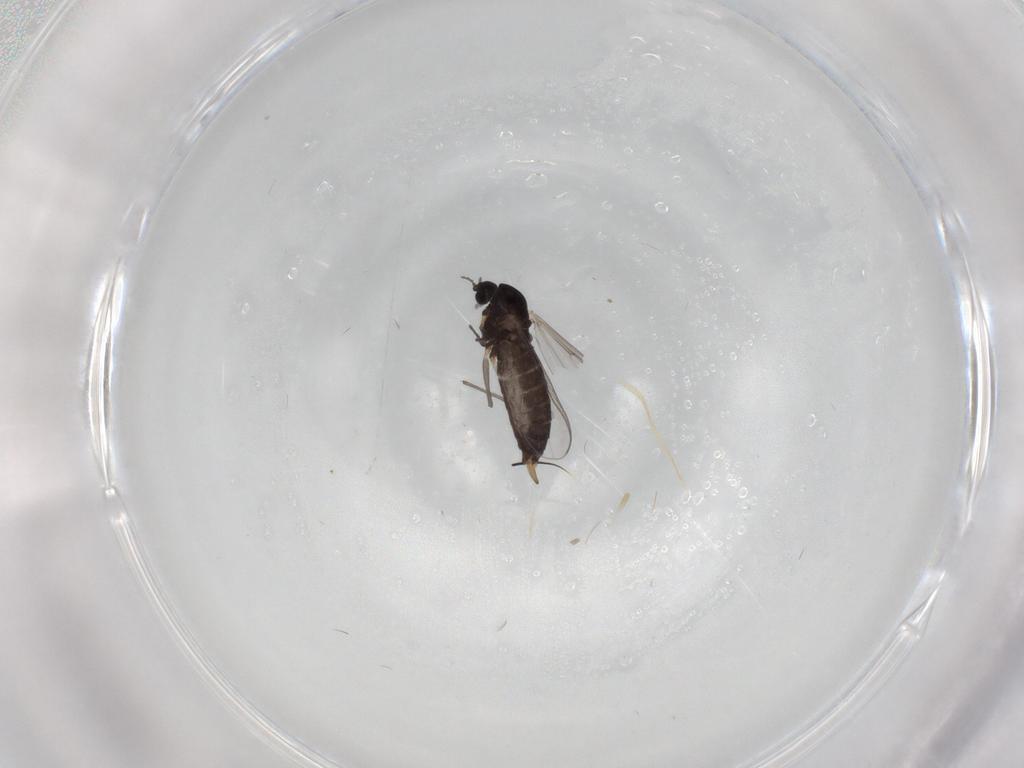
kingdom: Animalia
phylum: Arthropoda
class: Insecta
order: Diptera
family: Chironomidae
